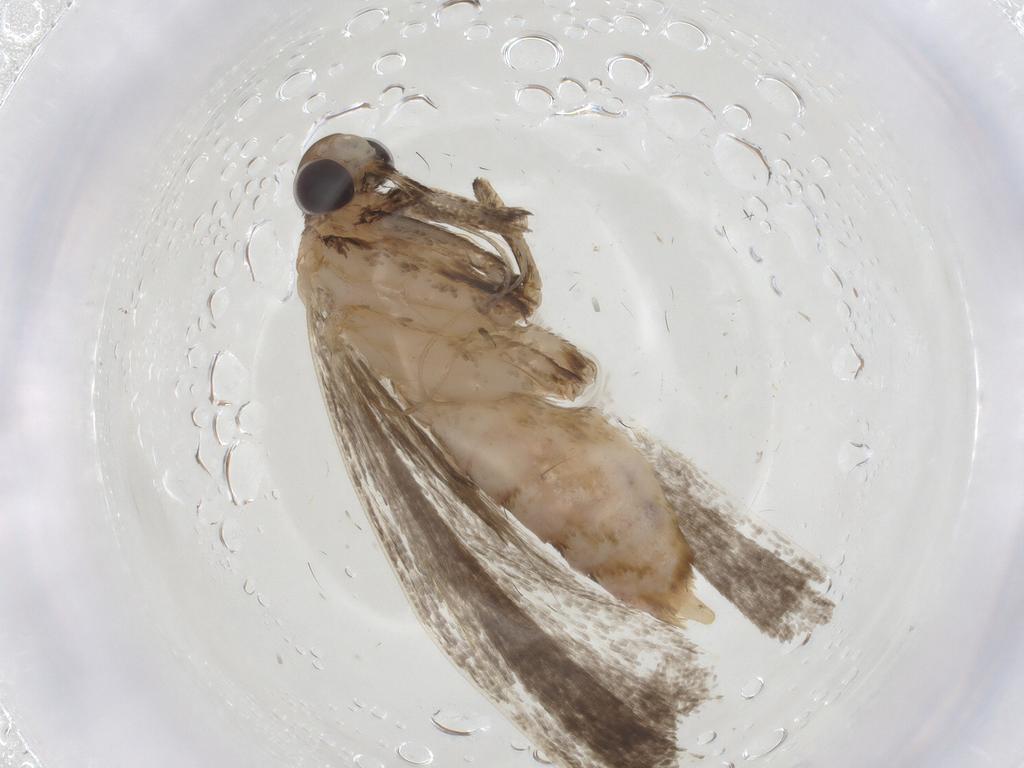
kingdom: Animalia
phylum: Arthropoda
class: Insecta
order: Lepidoptera
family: Cosmopterigidae
